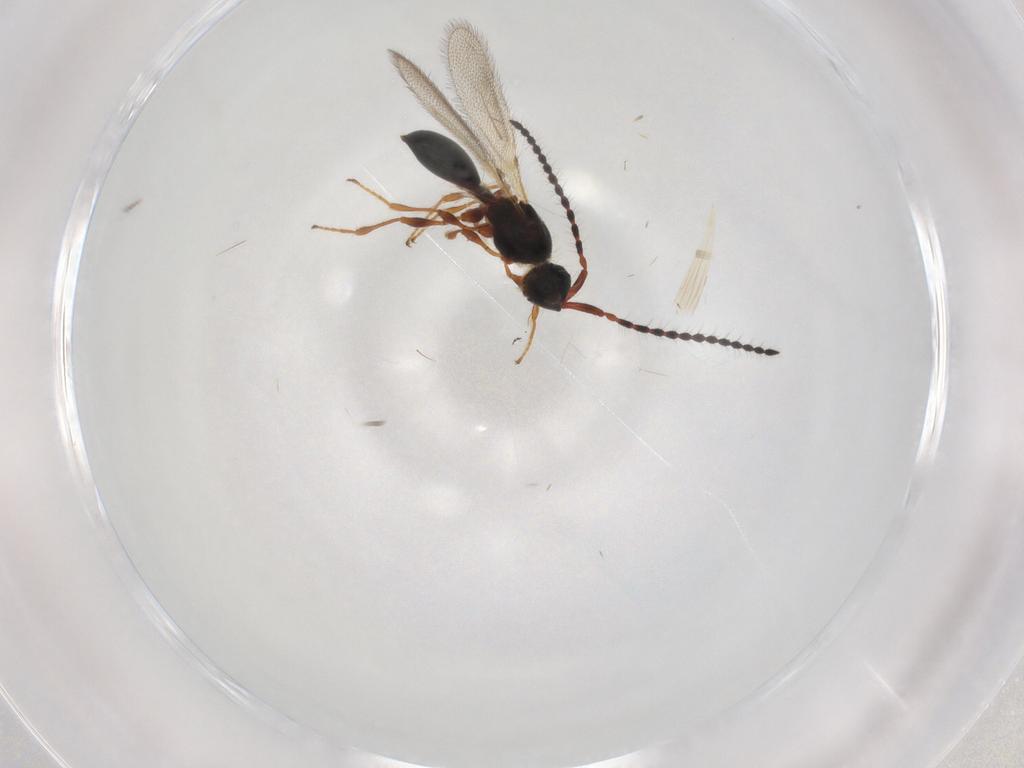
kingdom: Animalia
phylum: Arthropoda
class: Insecta
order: Hymenoptera
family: Diapriidae
